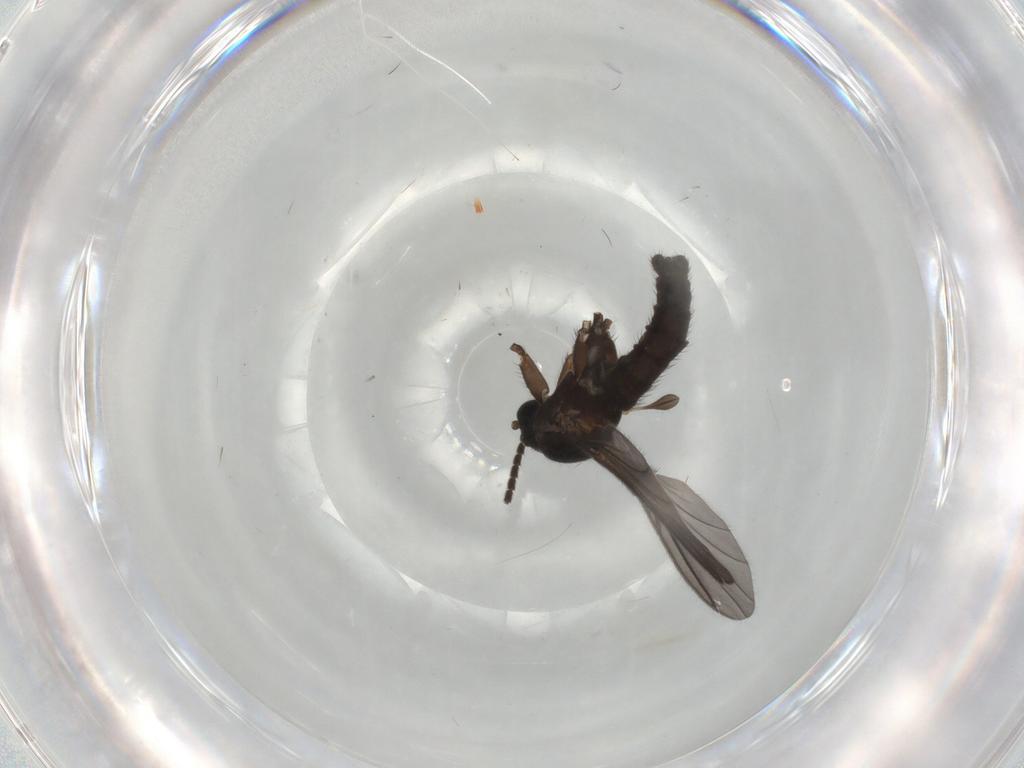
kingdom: Animalia
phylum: Arthropoda
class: Insecta
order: Diptera
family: Sciaridae
